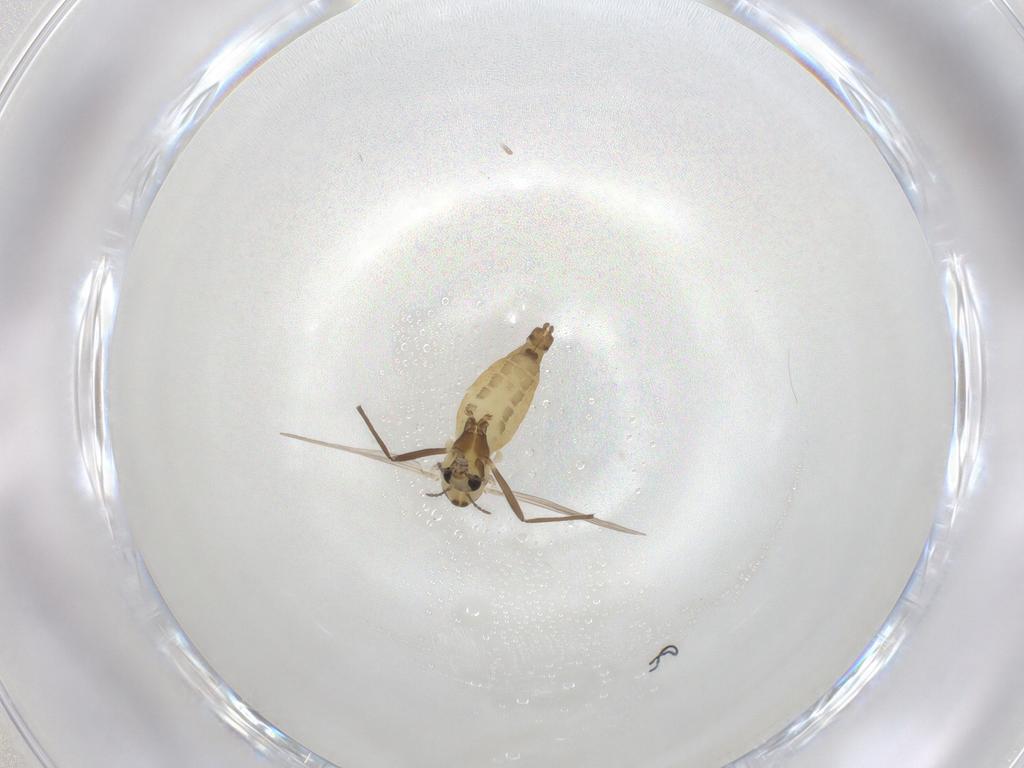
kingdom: Animalia
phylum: Arthropoda
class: Insecta
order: Diptera
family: Chironomidae
